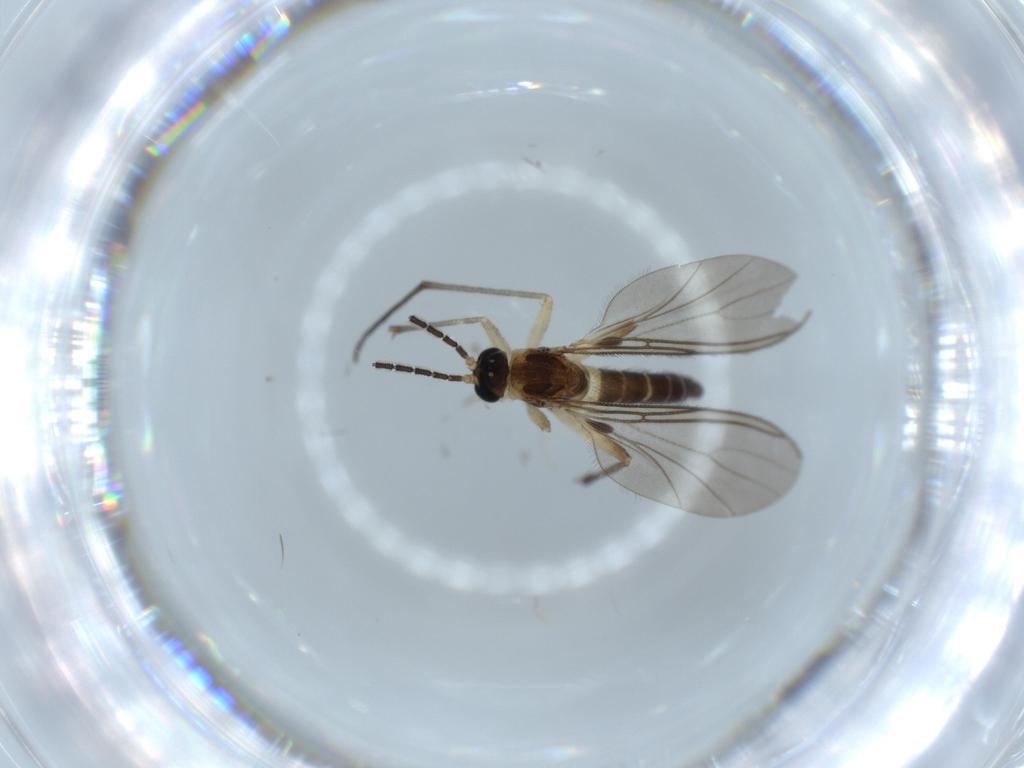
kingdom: Animalia
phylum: Arthropoda
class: Insecta
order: Diptera
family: Sciaridae
